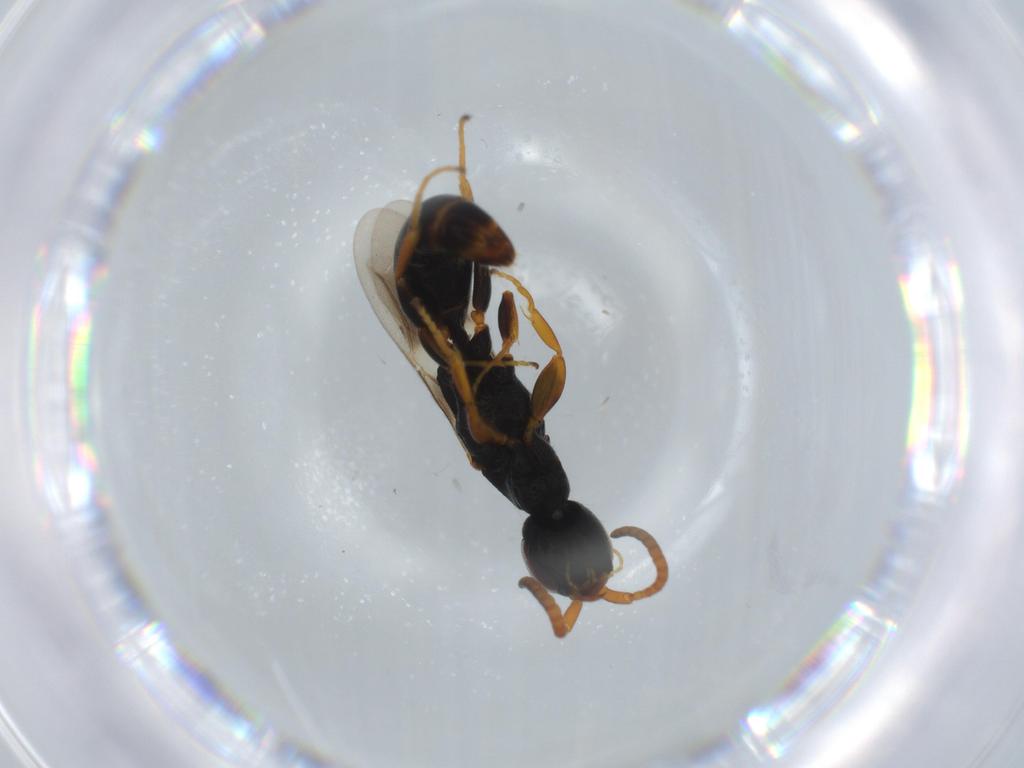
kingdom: Animalia
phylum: Arthropoda
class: Insecta
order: Hymenoptera
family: Bethylidae
